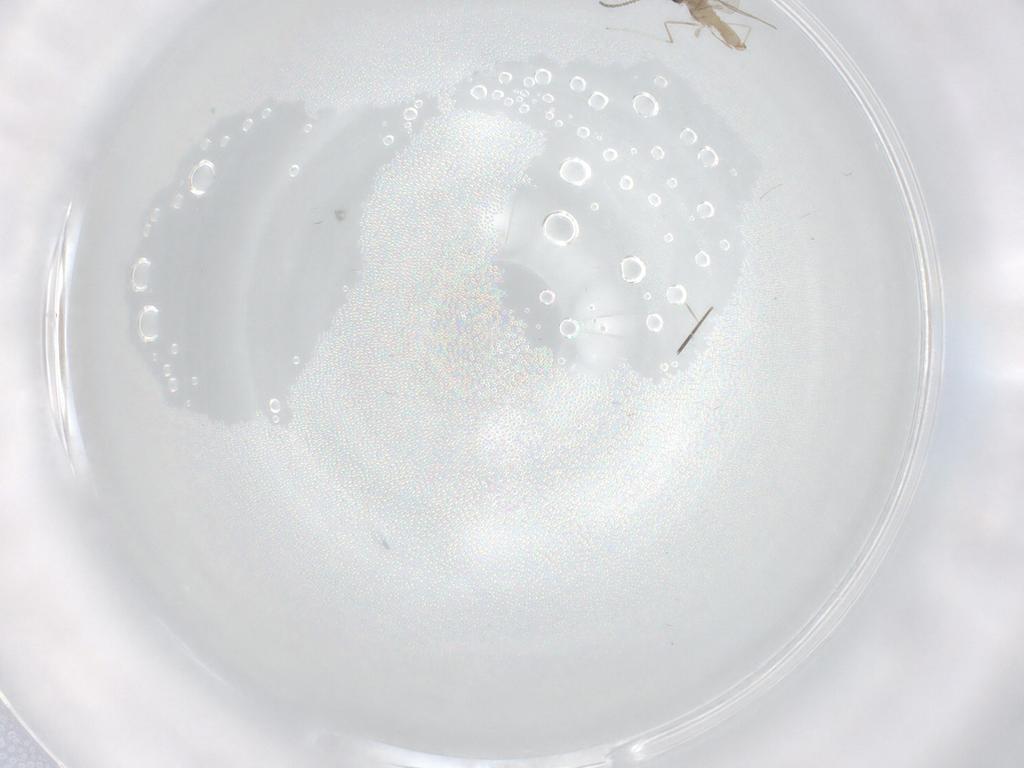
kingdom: Animalia
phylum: Arthropoda
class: Insecta
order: Diptera
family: Cecidomyiidae
